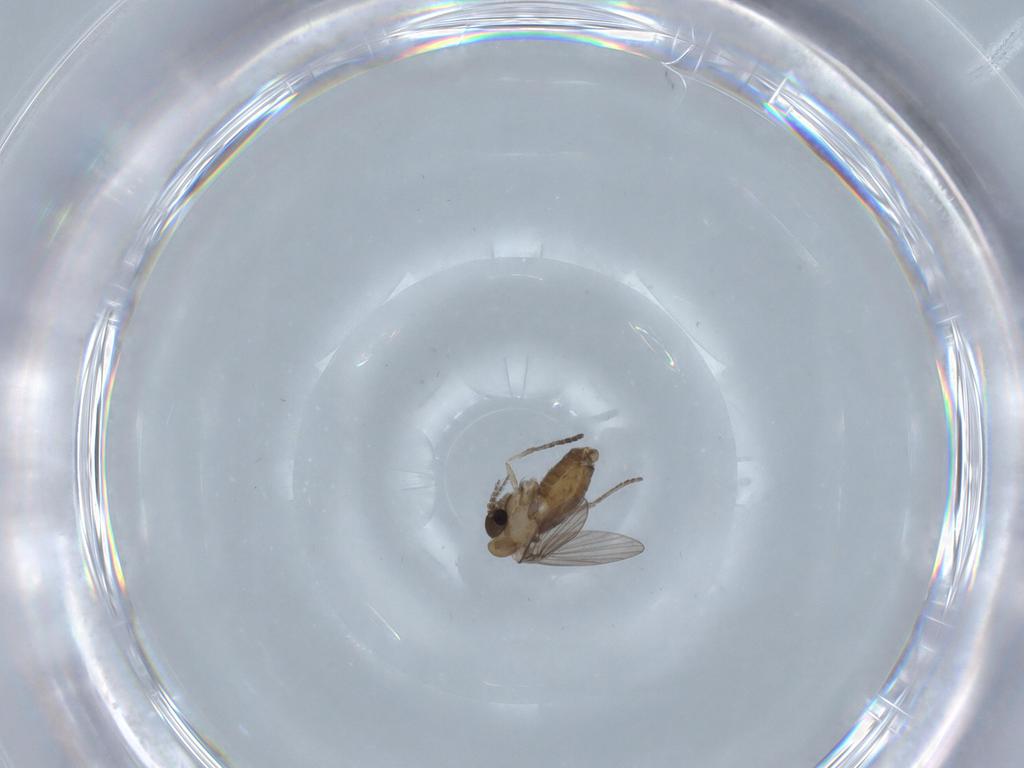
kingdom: Animalia
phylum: Arthropoda
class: Insecta
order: Diptera
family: Psychodidae
